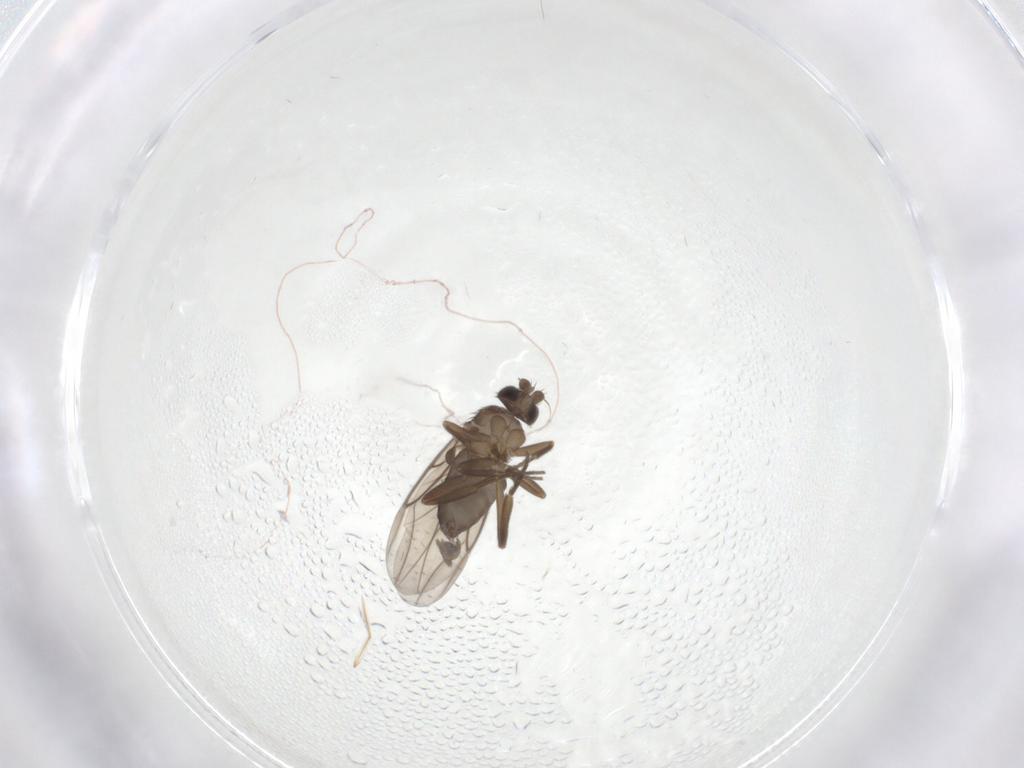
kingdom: Animalia
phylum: Arthropoda
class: Insecta
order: Diptera
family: Phoridae
